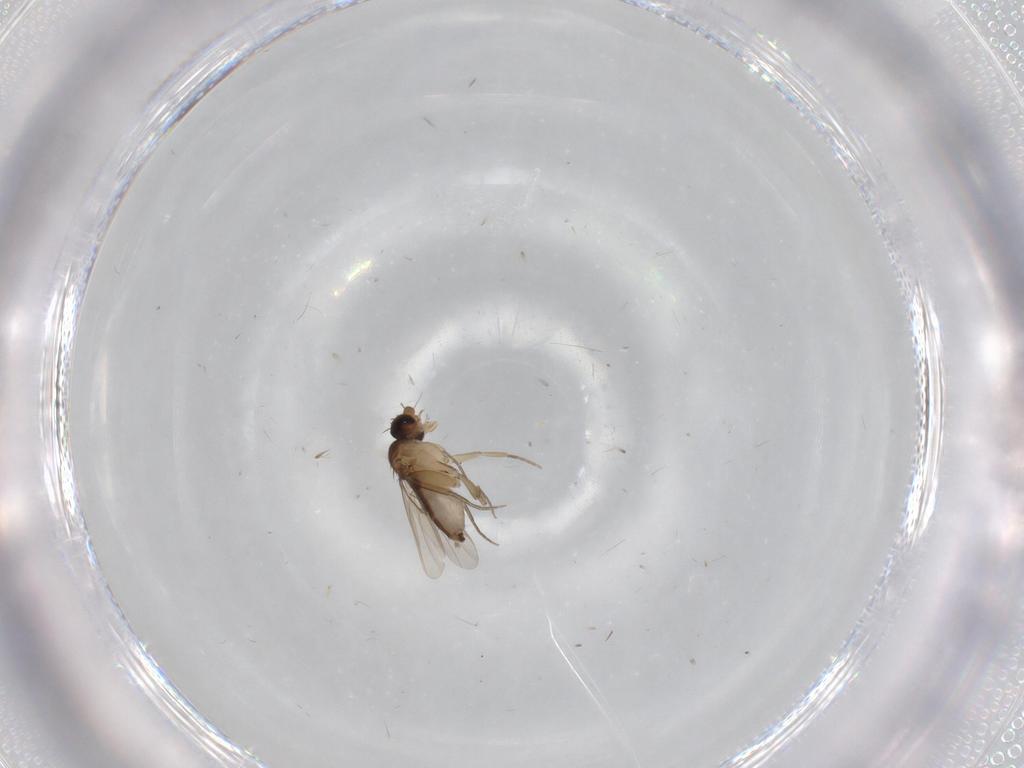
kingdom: Animalia
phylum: Arthropoda
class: Insecta
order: Diptera
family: Phoridae
